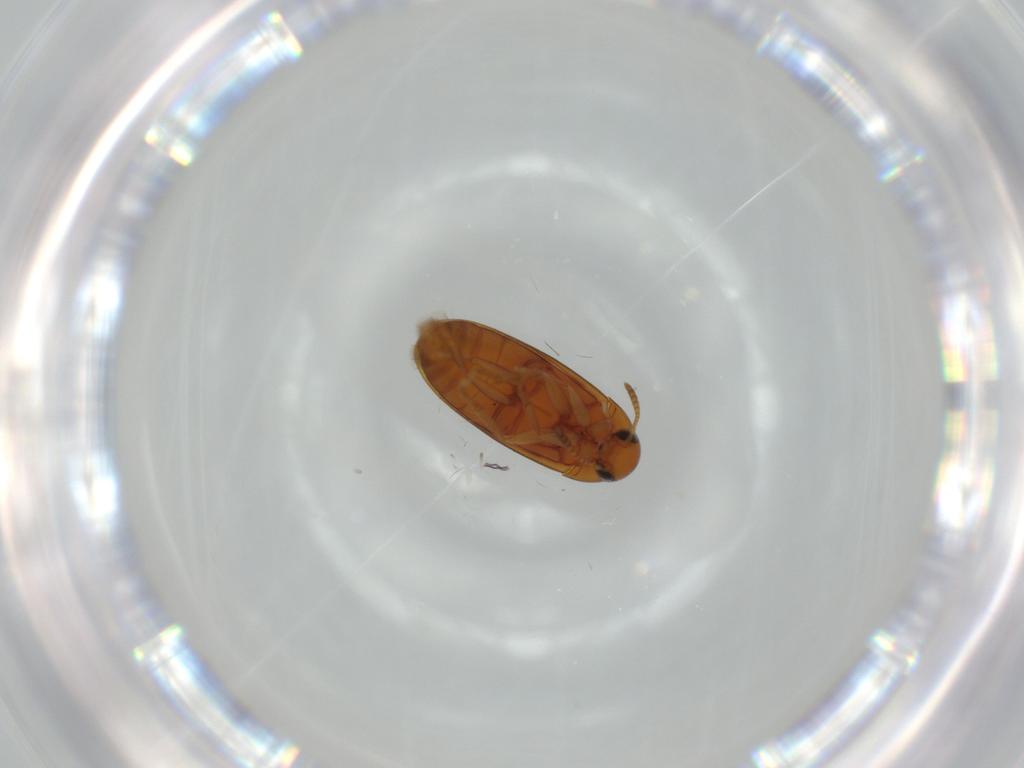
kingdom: Animalia
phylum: Arthropoda
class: Insecta
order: Coleoptera
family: Scraptiidae
